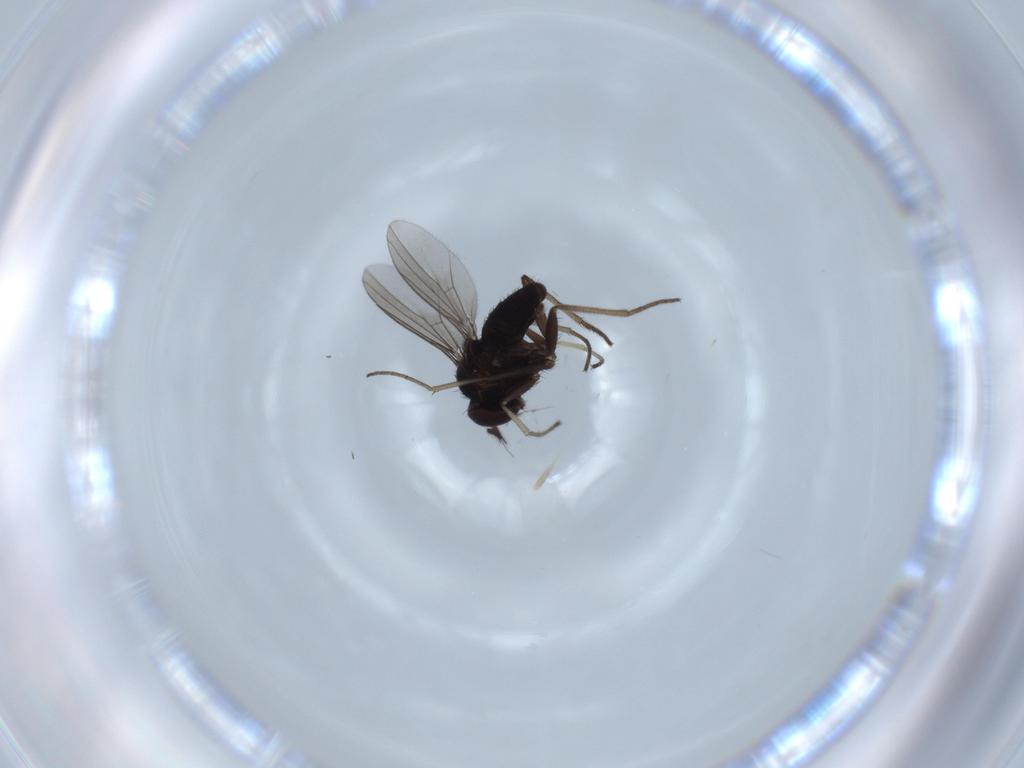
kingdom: Animalia
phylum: Arthropoda
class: Insecta
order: Diptera
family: Dolichopodidae
